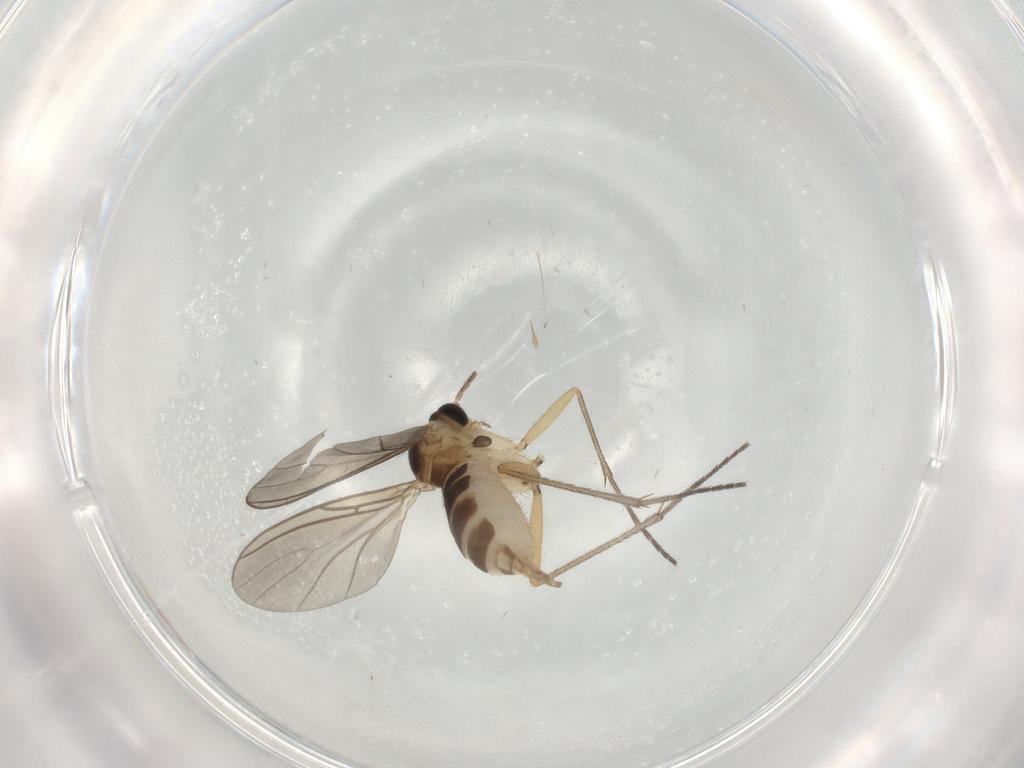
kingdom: Animalia
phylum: Arthropoda
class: Insecta
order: Diptera
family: Sciaridae
